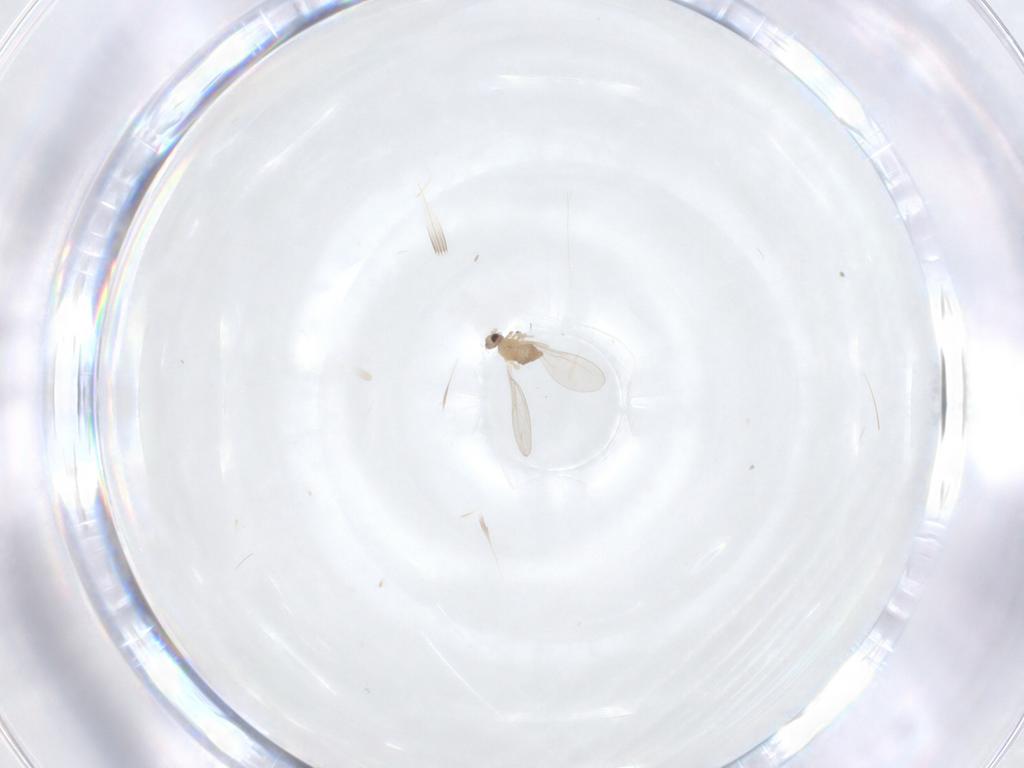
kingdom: Animalia
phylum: Arthropoda
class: Insecta
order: Diptera
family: Cecidomyiidae
